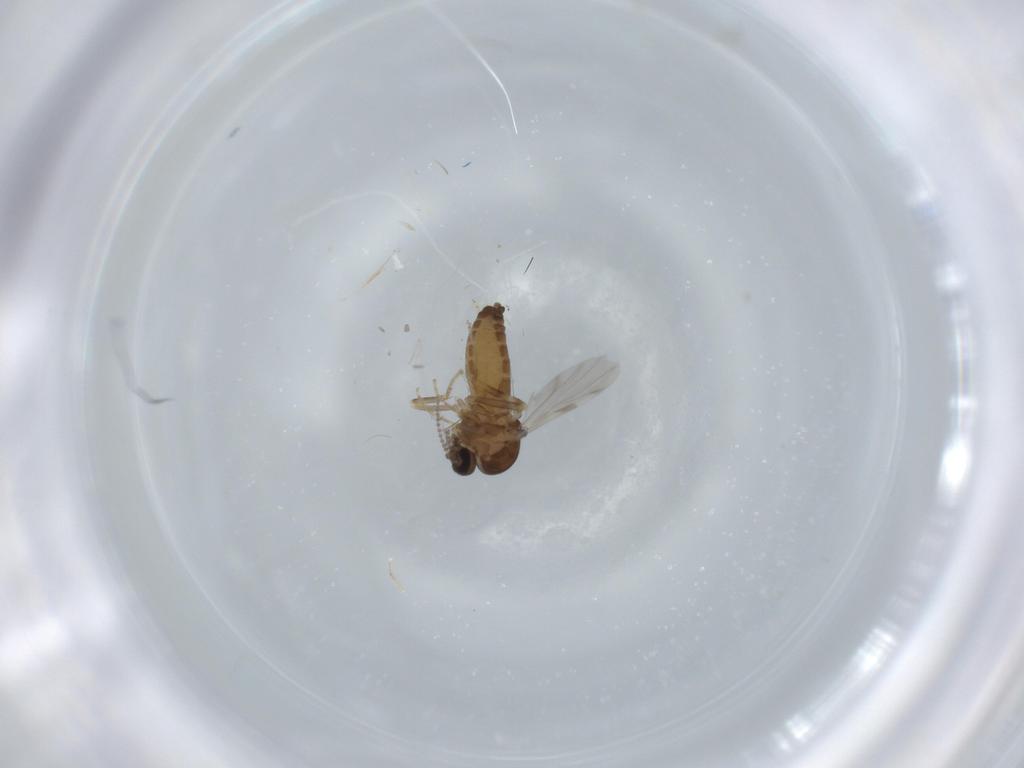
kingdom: Animalia
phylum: Arthropoda
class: Insecta
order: Diptera
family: Ceratopogonidae
